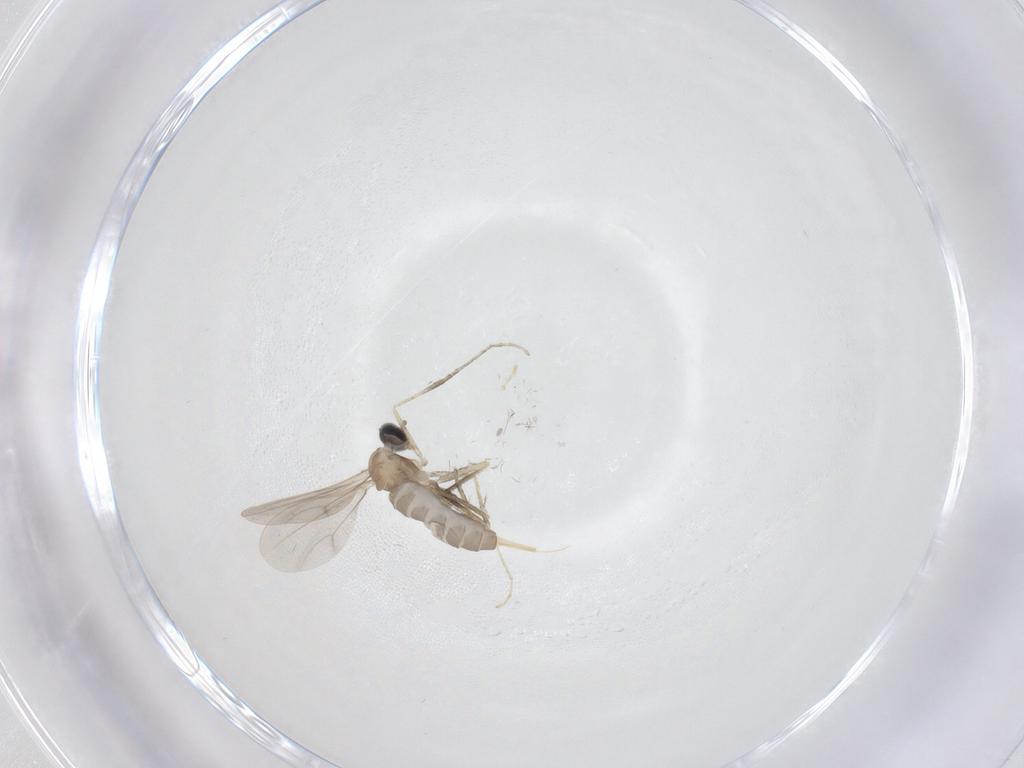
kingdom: Animalia
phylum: Arthropoda
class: Insecta
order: Diptera
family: Cecidomyiidae
